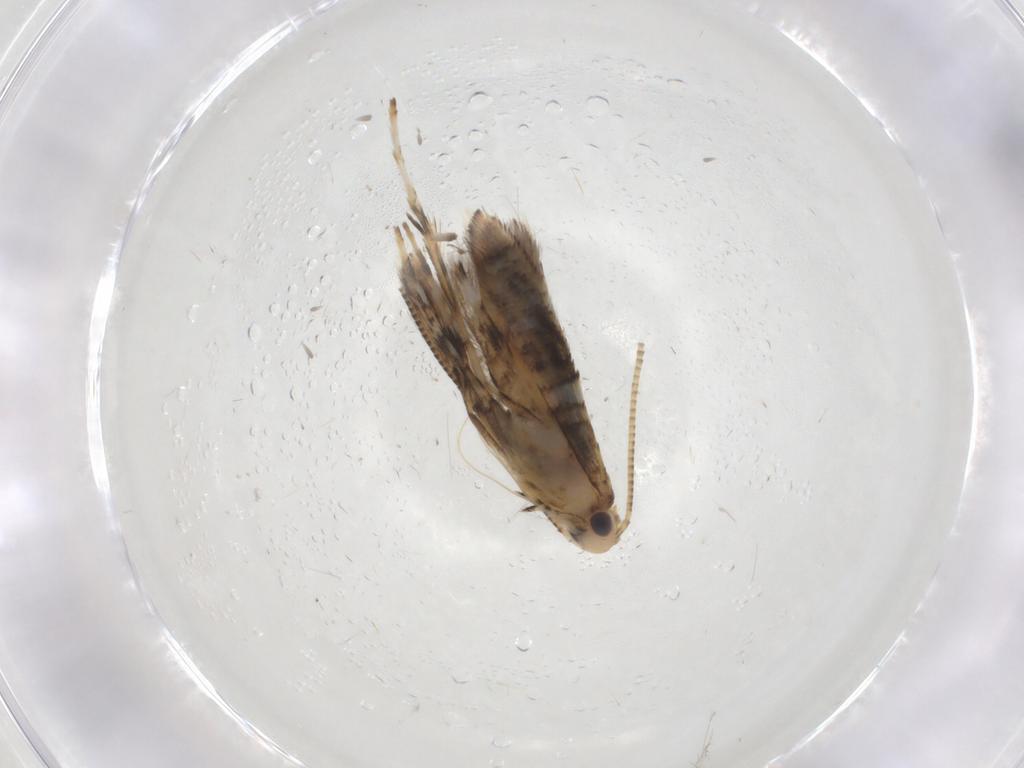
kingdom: Animalia
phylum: Arthropoda
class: Insecta
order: Lepidoptera
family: Gracillariidae
